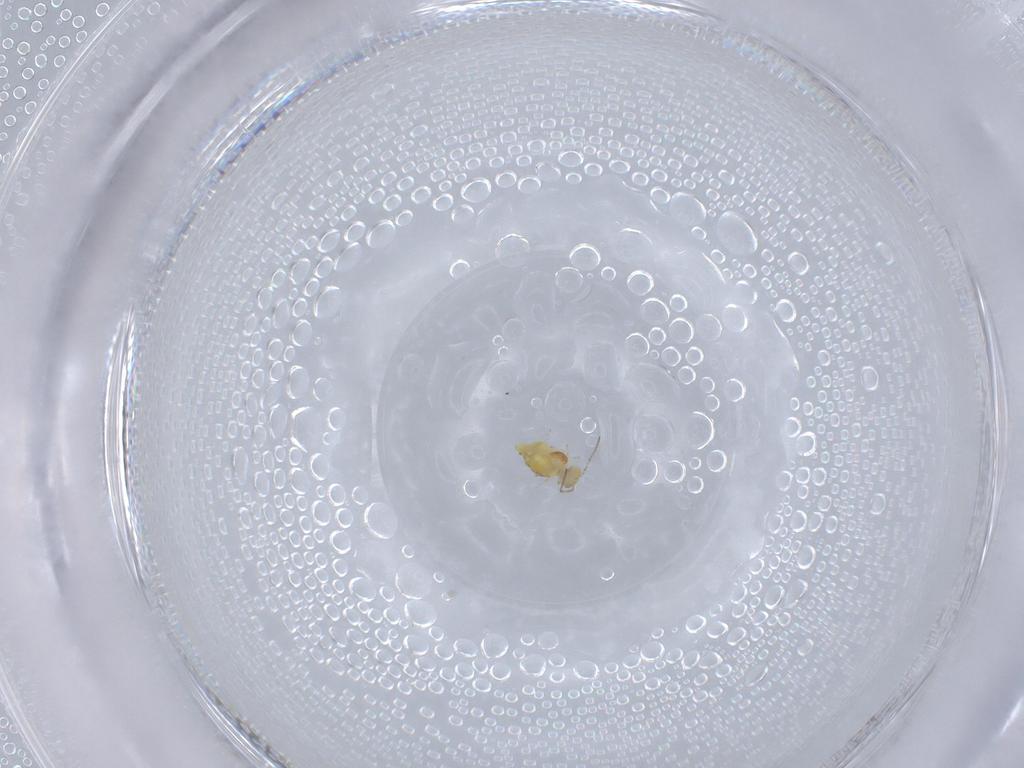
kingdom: Animalia
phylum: Arthropoda
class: Collembola
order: Symphypleona
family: Bourletiellidae
